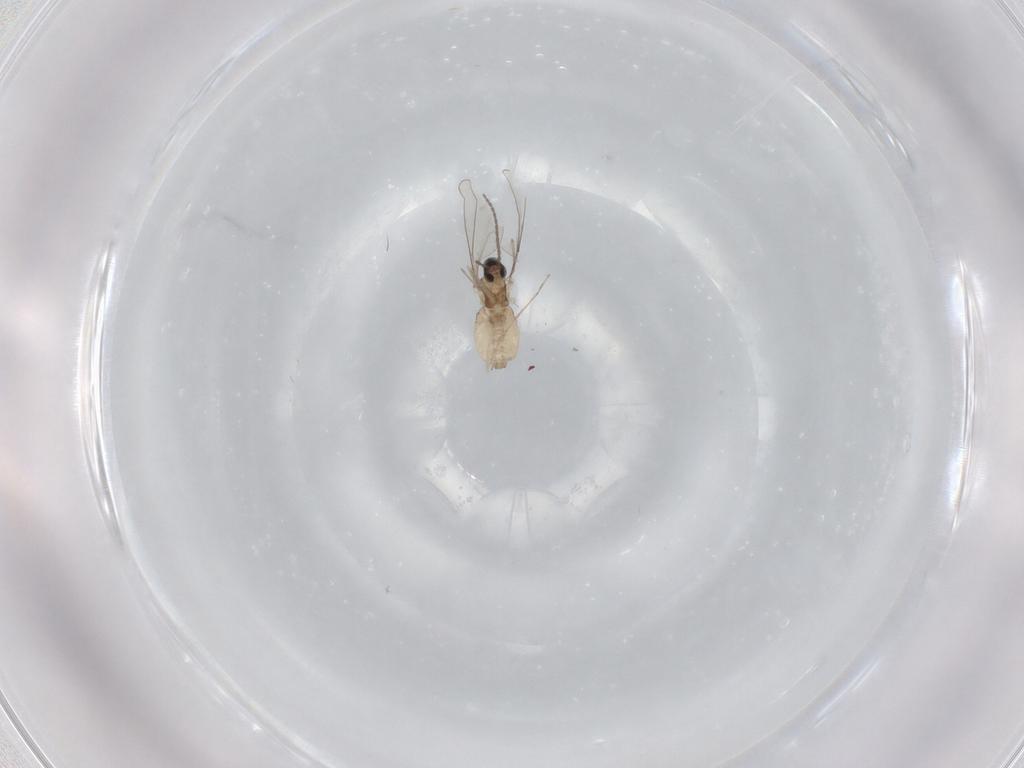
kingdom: Animalia
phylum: Arthropoda
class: Insecta
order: Diptera
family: Cecidomyiidae
